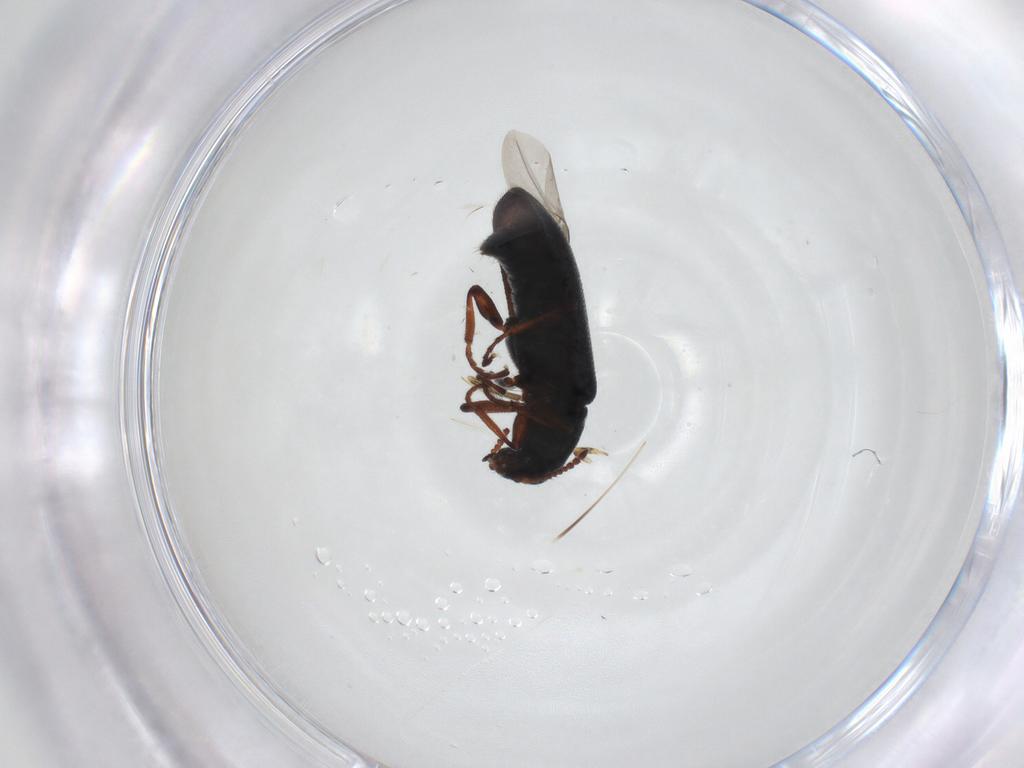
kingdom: Animalia
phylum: Arthropoda
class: Insecta
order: Coleoptera
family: Melyridae
